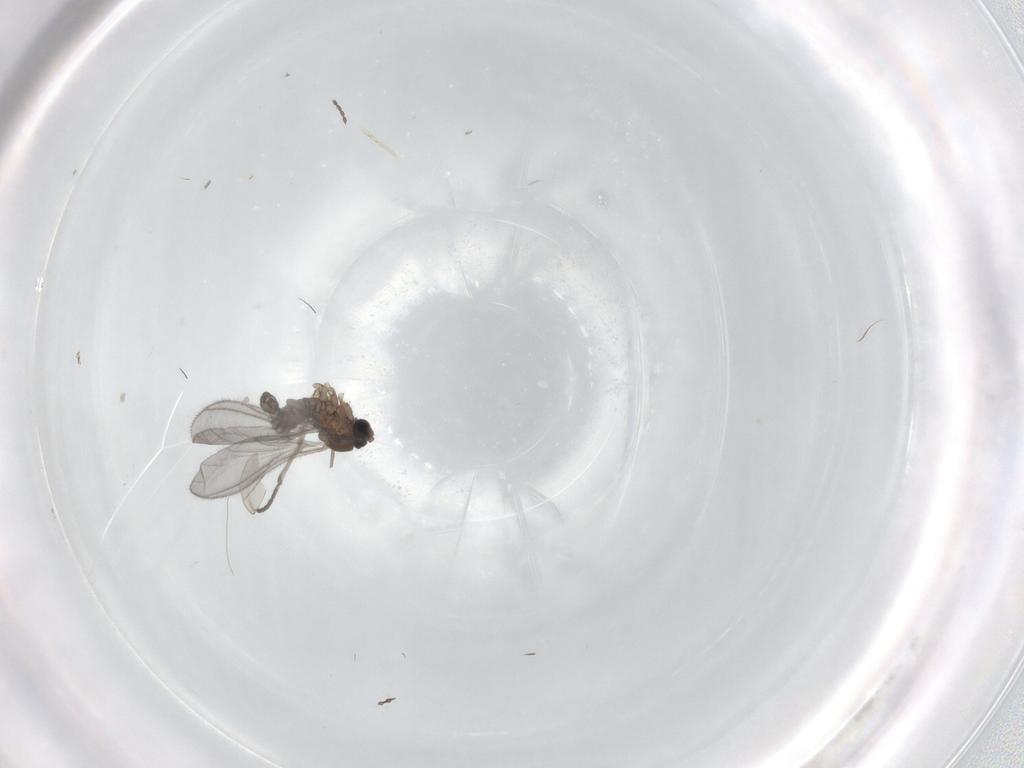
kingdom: Animalia
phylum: Arthropoda
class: Insecta
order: Diptera
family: Sciaridae
